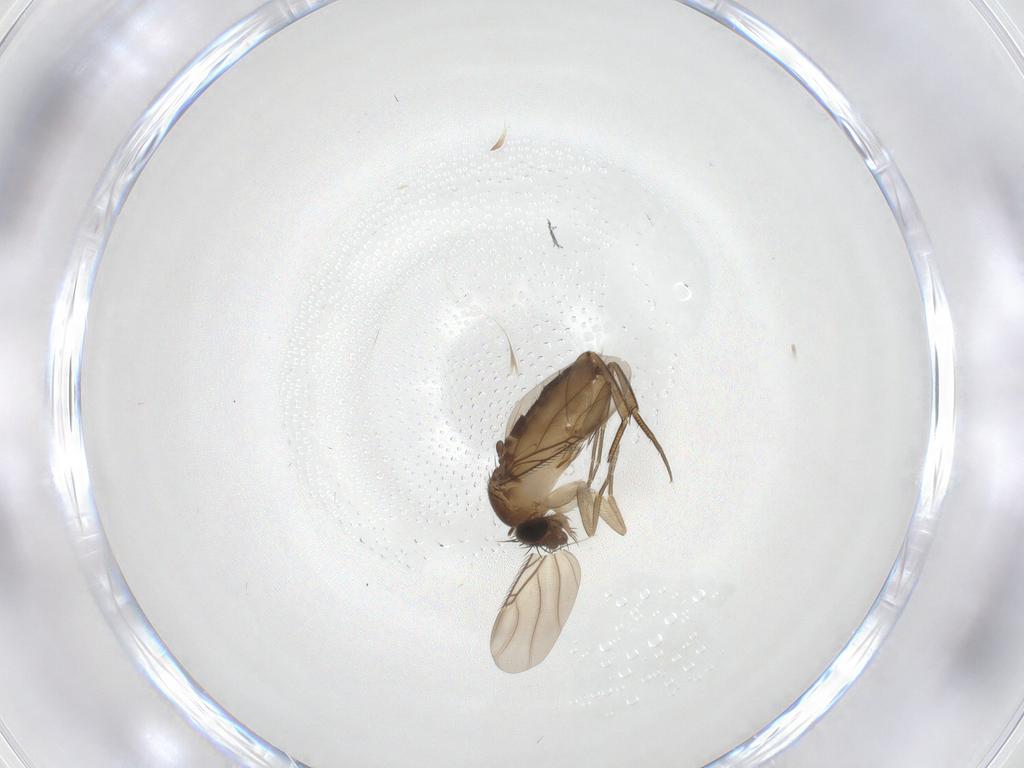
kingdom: Animalia
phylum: Arthropoda
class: Insecta
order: Diptera
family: Phoridae
